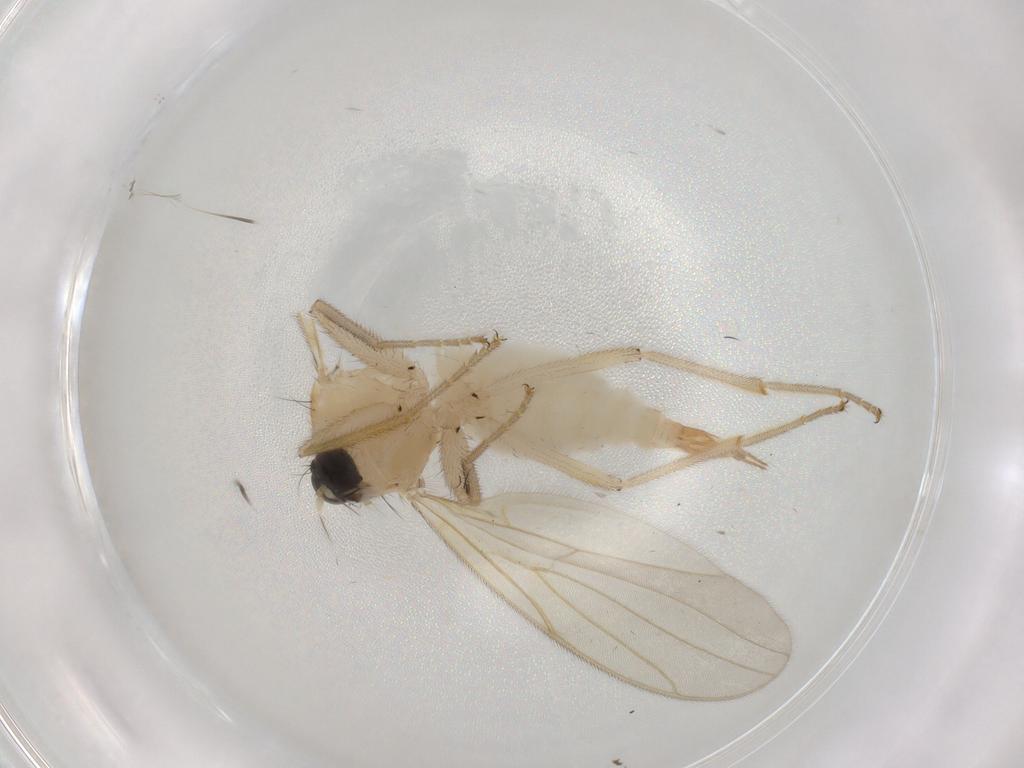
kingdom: Animalia
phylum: Arthropoda
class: Insecta
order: Diptera
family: Hybotidae
